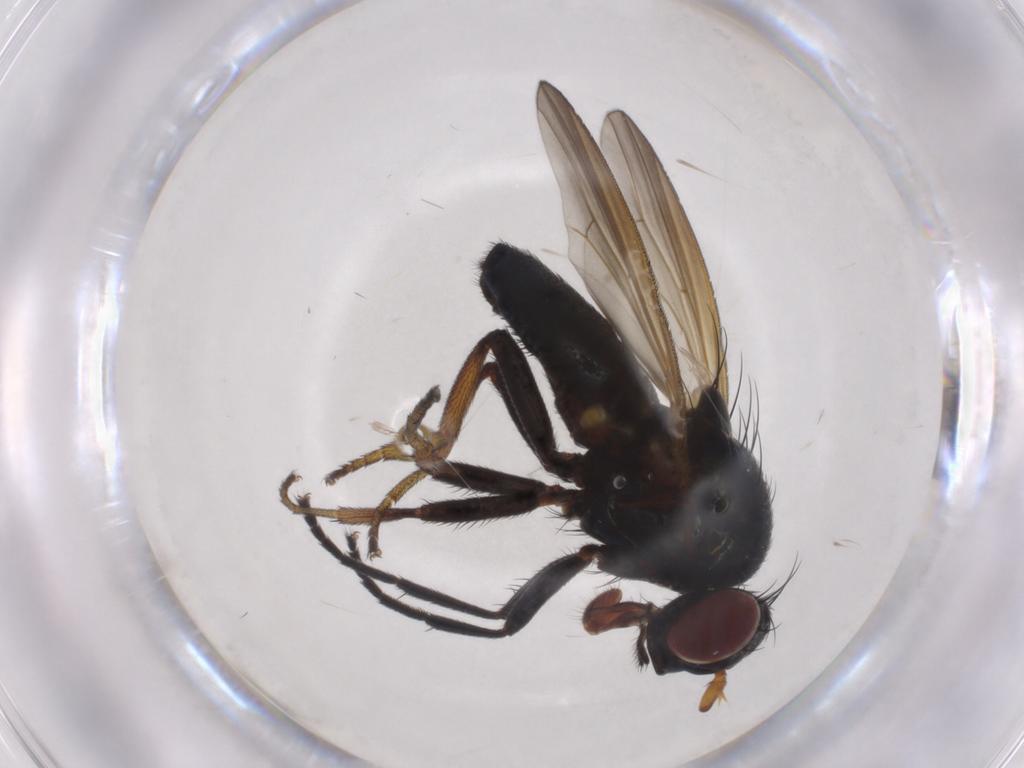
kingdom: Animalia
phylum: Arthropoda
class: Insecta
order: Diptera
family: Lauxaniidae
